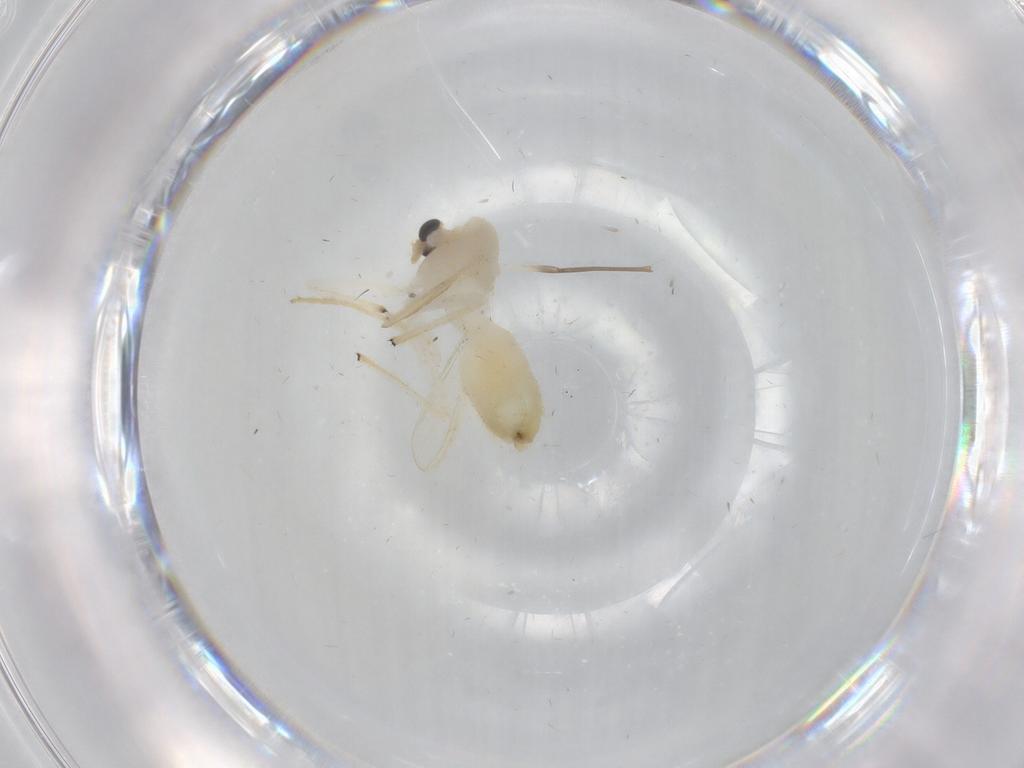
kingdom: Animalia
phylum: Arthropoda
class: Insecta
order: Diptera
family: Chironomidae
